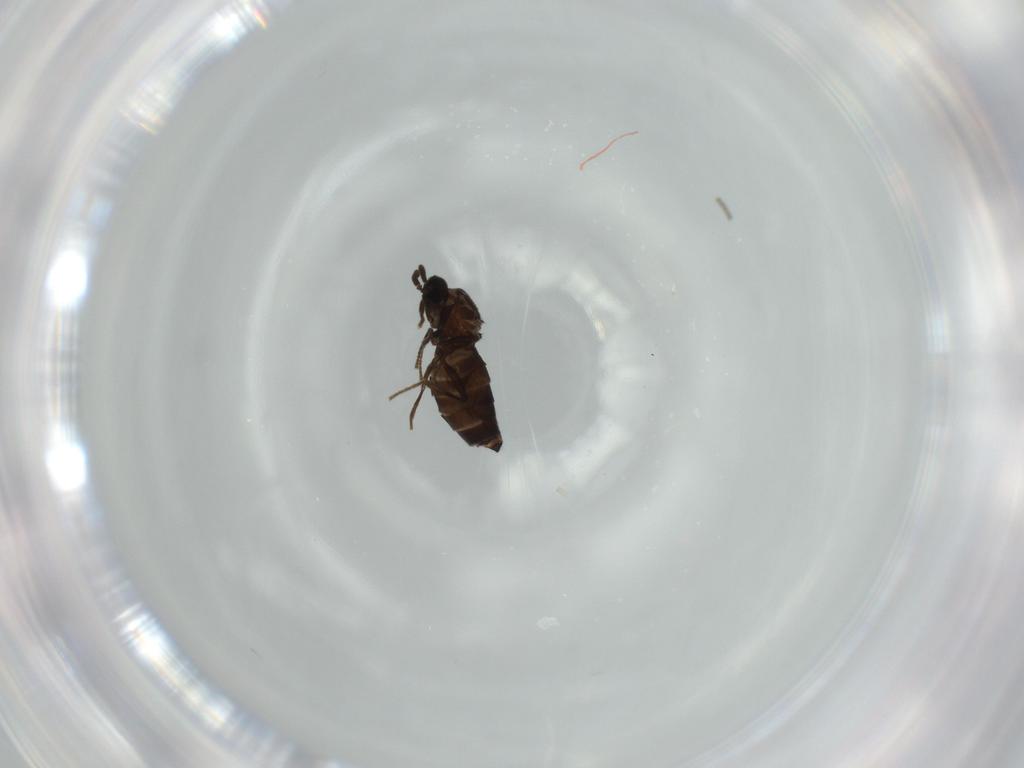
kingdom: Animalia
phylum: Arthropoda
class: Insecta
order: Diptera
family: Scatopsidae
